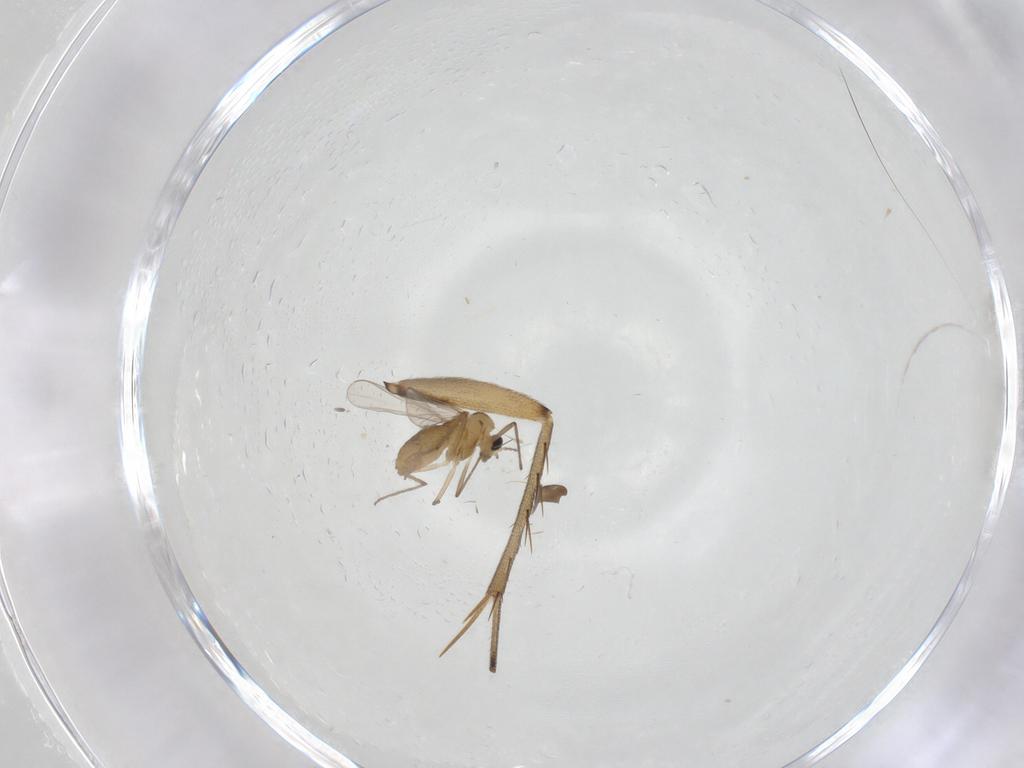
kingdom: Animalia
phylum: Arthropoda
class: Insecta
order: Diptera
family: Chironomidae
